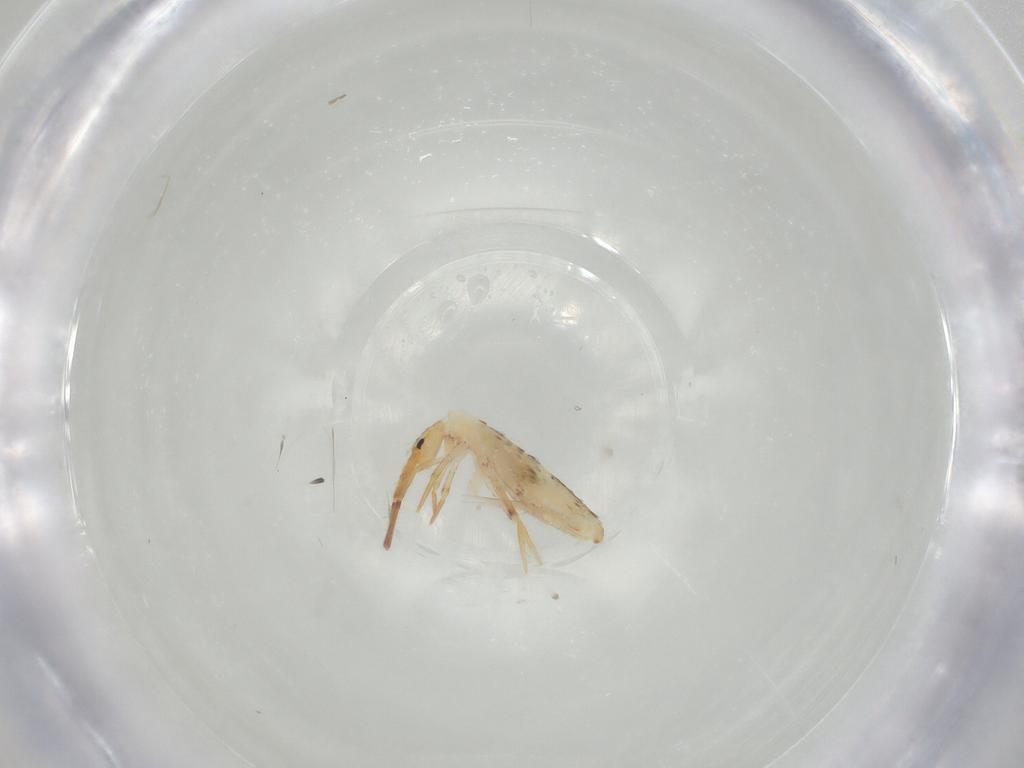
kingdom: Animalia
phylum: Arthropoda
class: Collembola
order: Poduromorpha
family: Hypogastruridae
